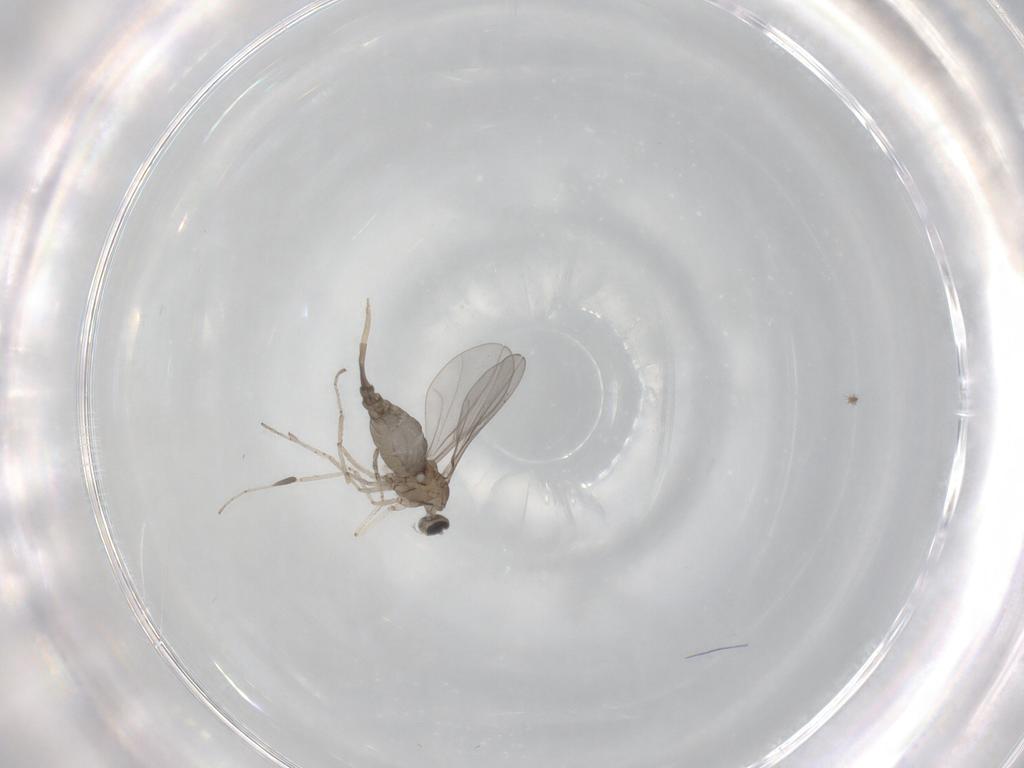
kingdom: Animalia
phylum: Arthropoda
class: Insecta
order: Diptera
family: Chironomidae
